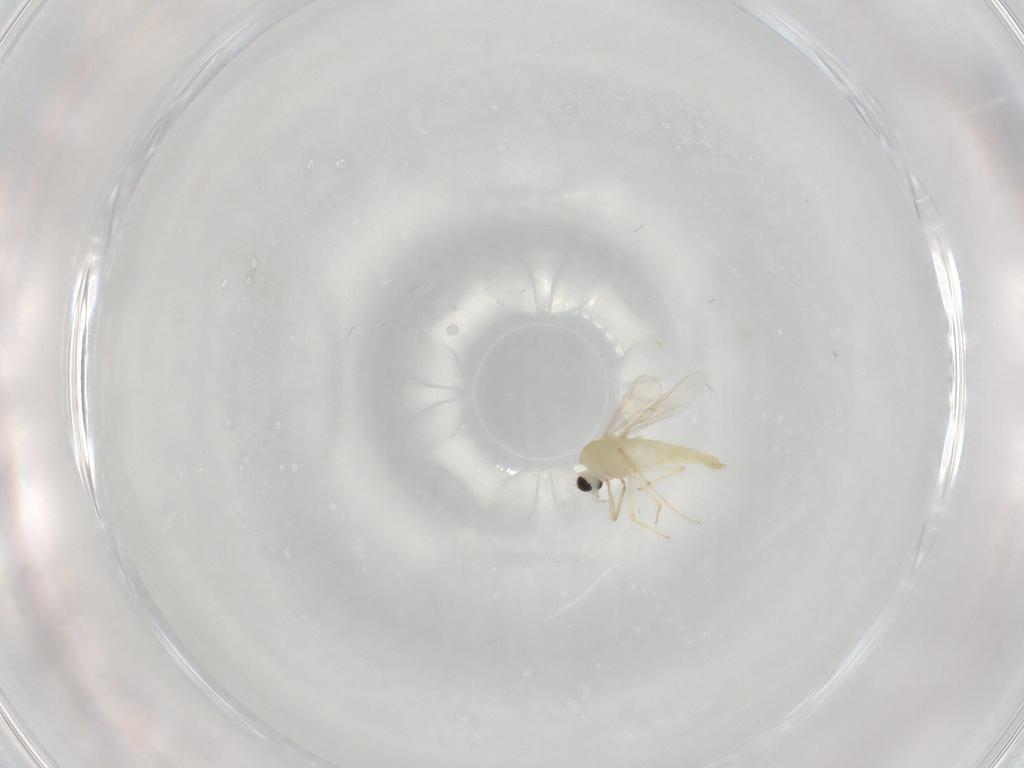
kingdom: Animalia
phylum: Arthropoda
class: Insecta
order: Diptera
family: Chironomidae
